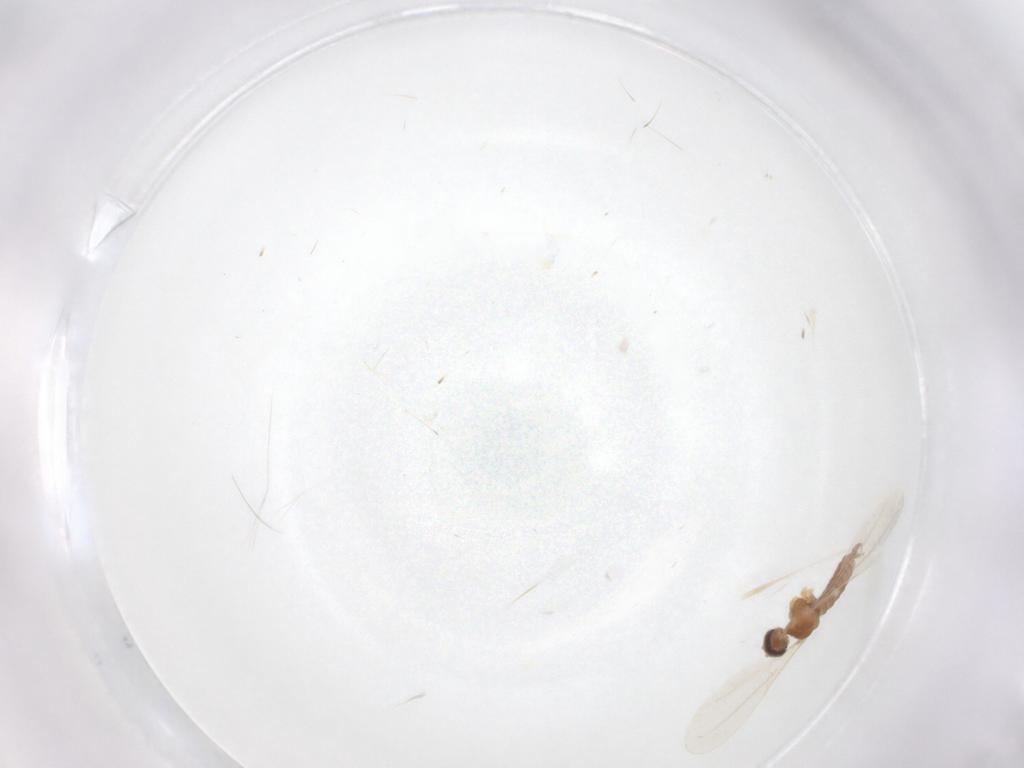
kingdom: Animalia
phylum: Arthropoda
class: Insecta
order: Diptera
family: Cecidomyiidae
